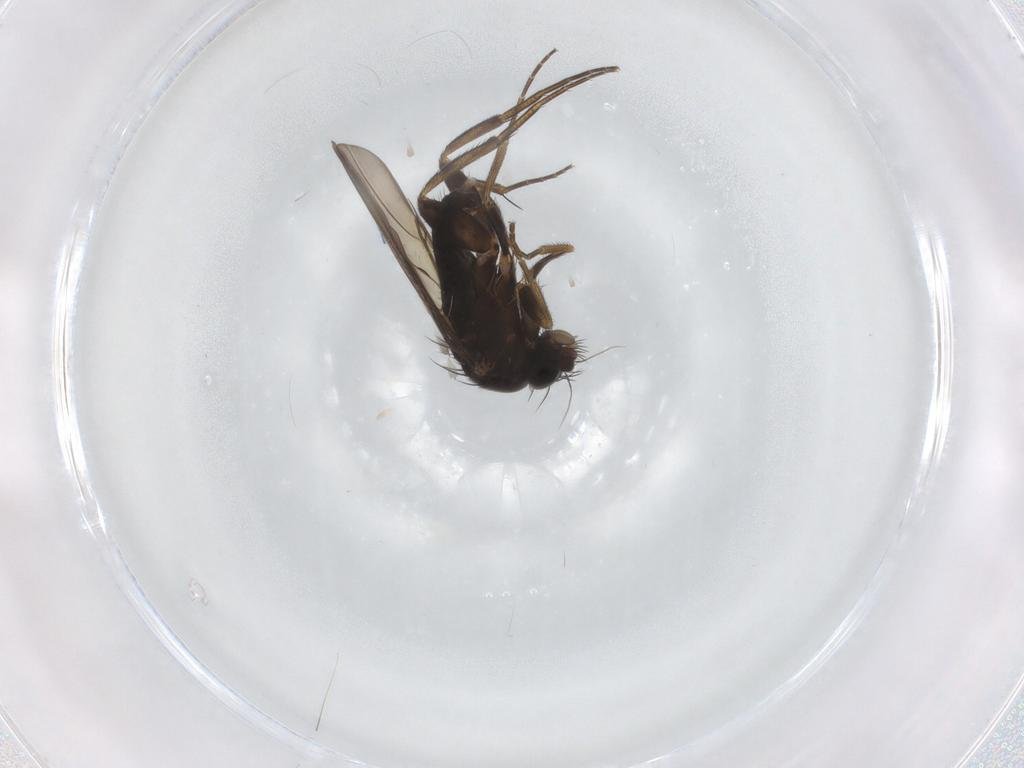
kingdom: Animalia
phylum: Arthropoda
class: Insecta
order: Diptera
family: Phoridae
